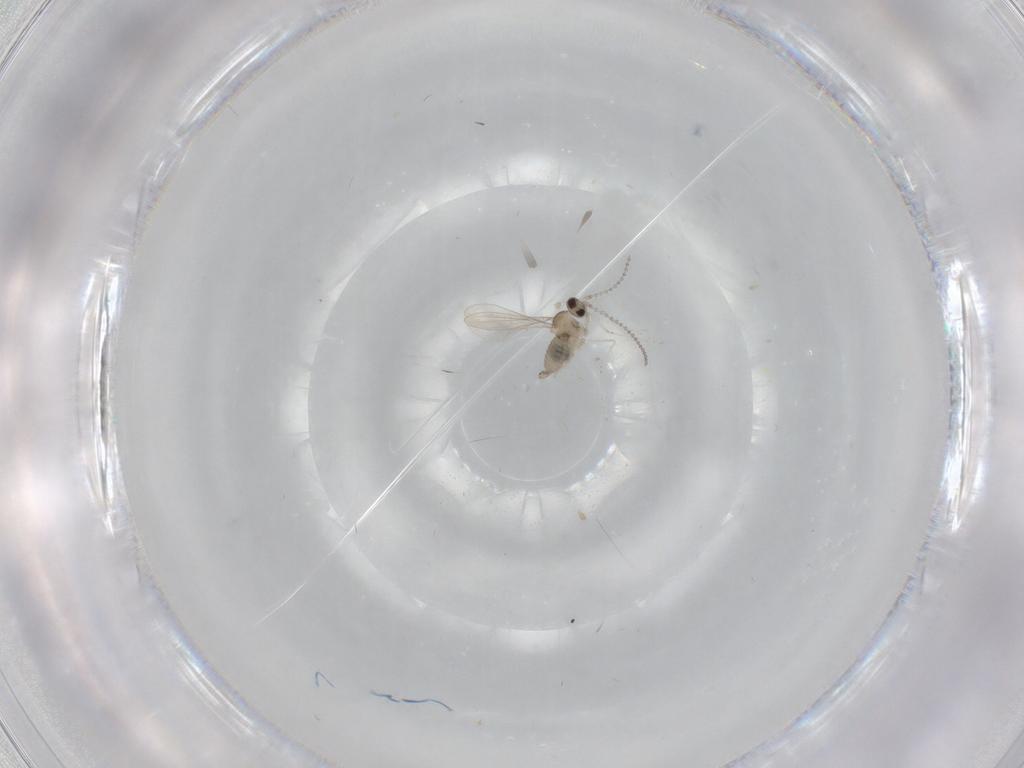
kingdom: Animalia
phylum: Arthropoda
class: Insecta
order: Diptera
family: Cecidomyiidae
